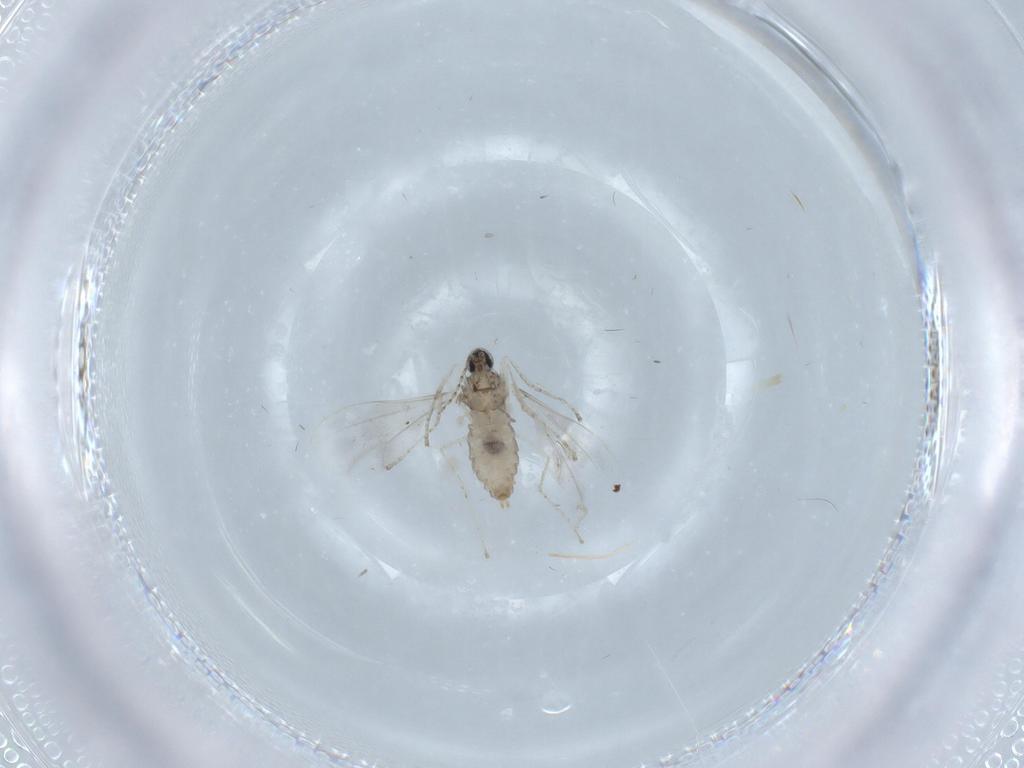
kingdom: Animalia
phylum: Arthropoda
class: Insecta
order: Diptera
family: Cecidomyiidae
